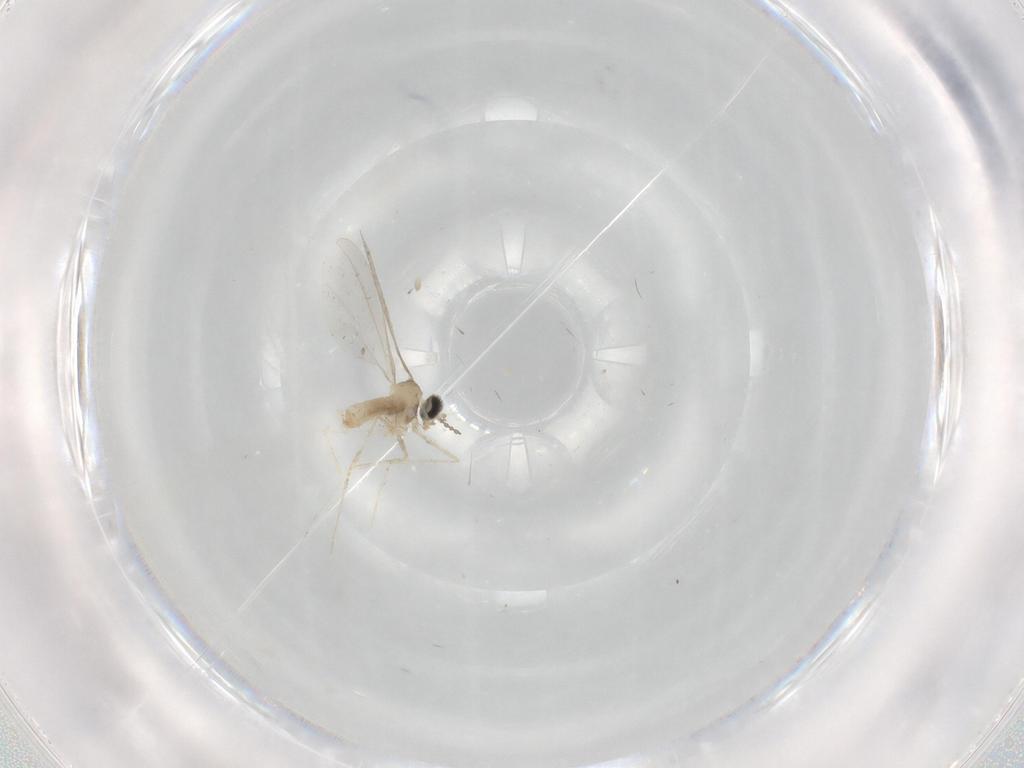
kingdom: Animalia
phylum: Arthropoda
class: Insecta
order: Diptera
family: Cecidomyiidae
